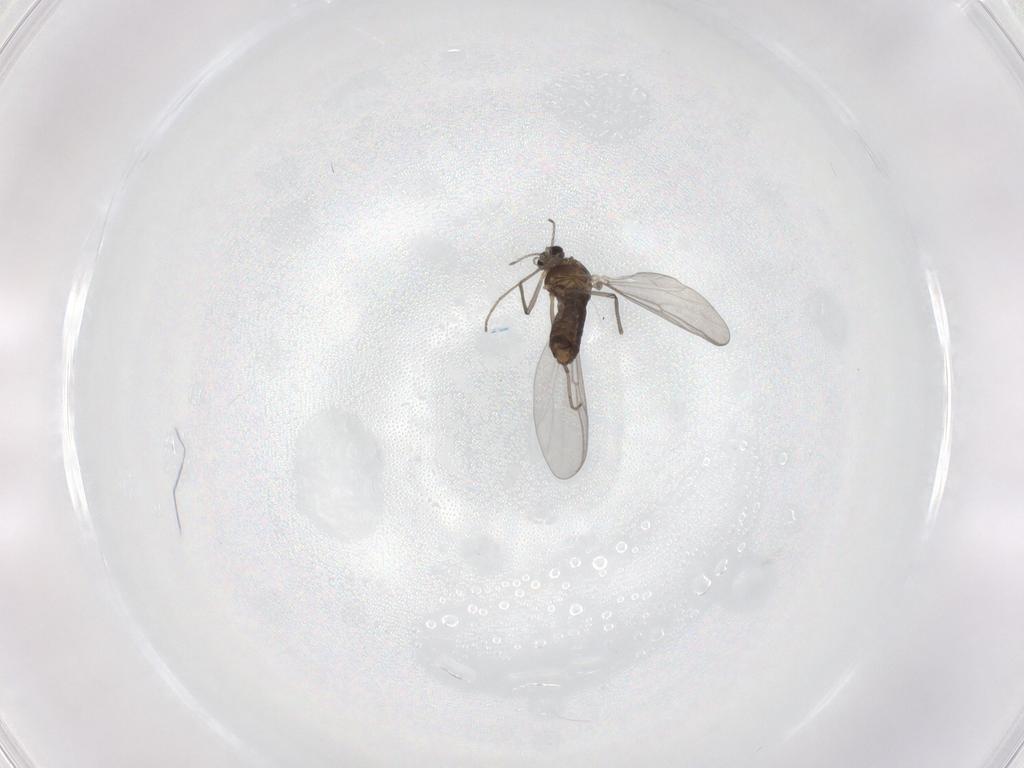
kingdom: Animalia
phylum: Arthropoda
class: Insecta
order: Diptera
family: Chironomidae
